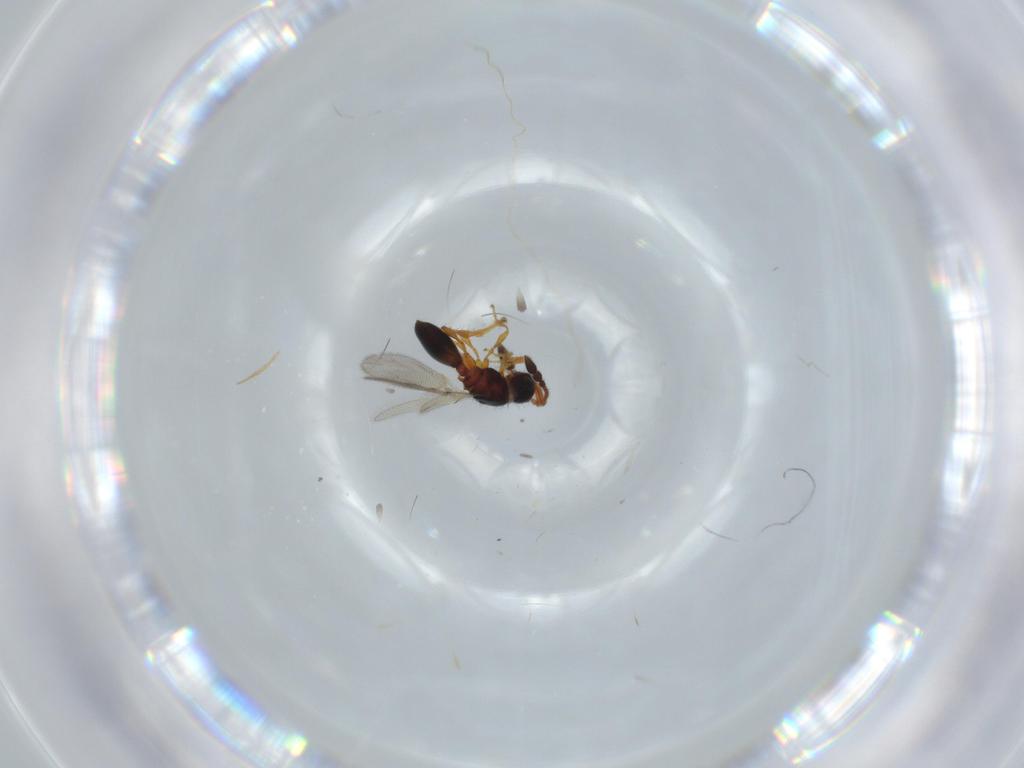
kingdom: Animalia
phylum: Arthropoda
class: Insecta
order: Hymenoptera
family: Diapriidae
